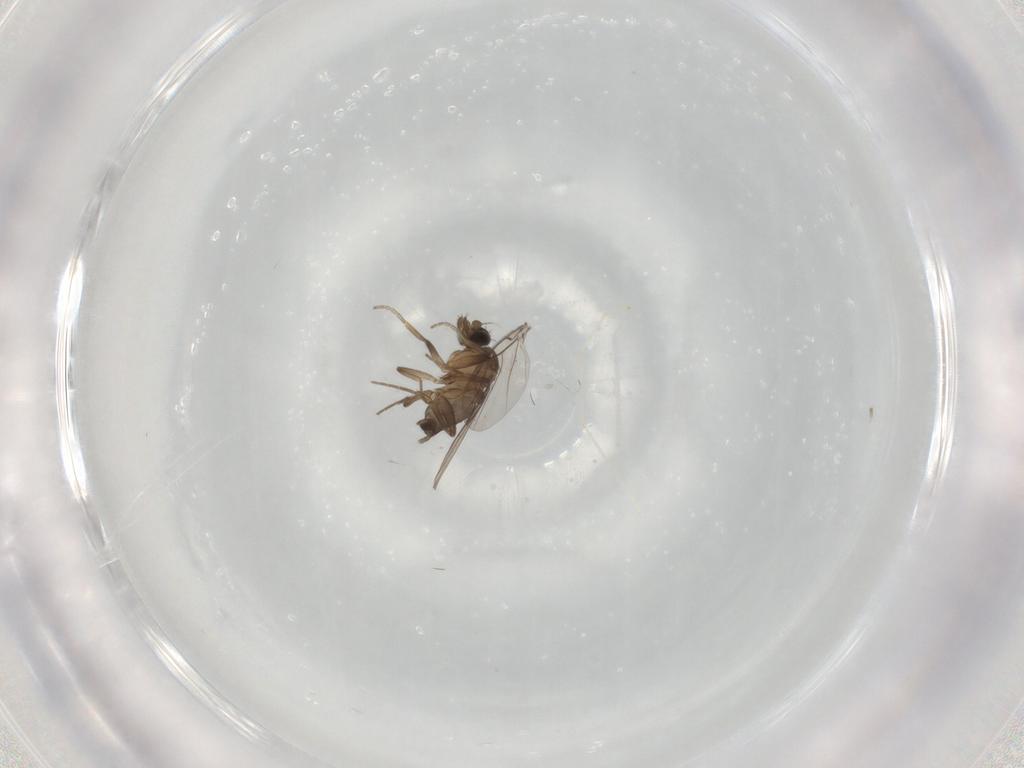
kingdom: Animalia
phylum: Arthropoda
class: Insecta
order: Diptera
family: Phoridae
